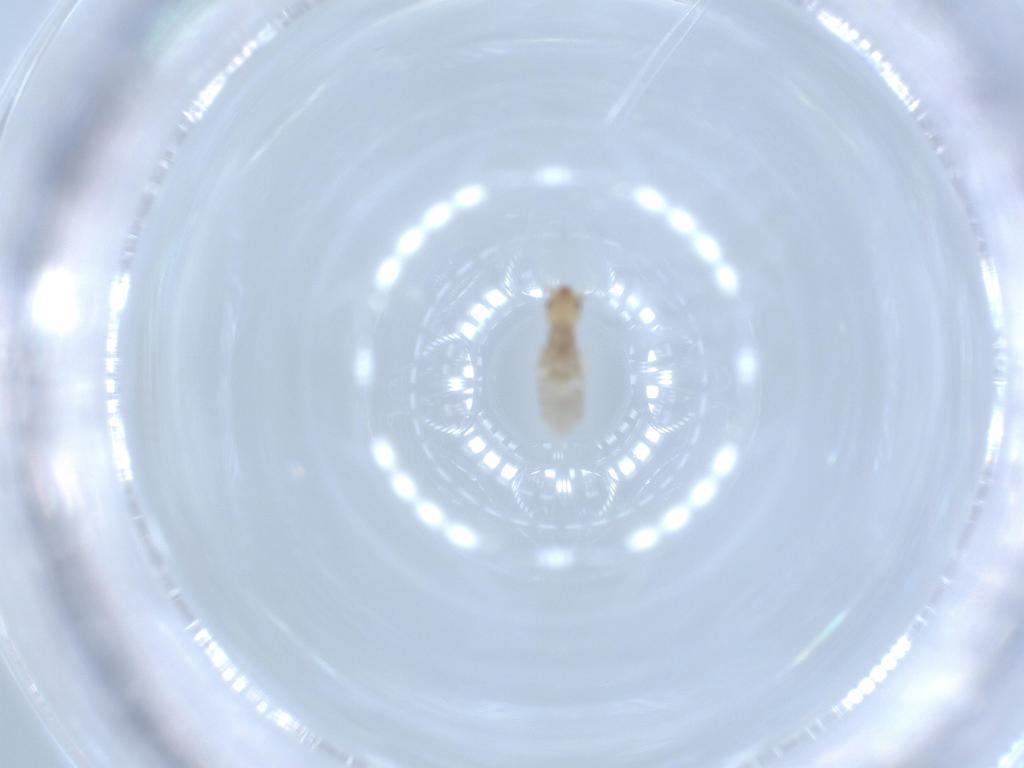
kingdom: Animalia
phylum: Arthropoda
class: Insecta
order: Psocodea
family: Liposcelididae
